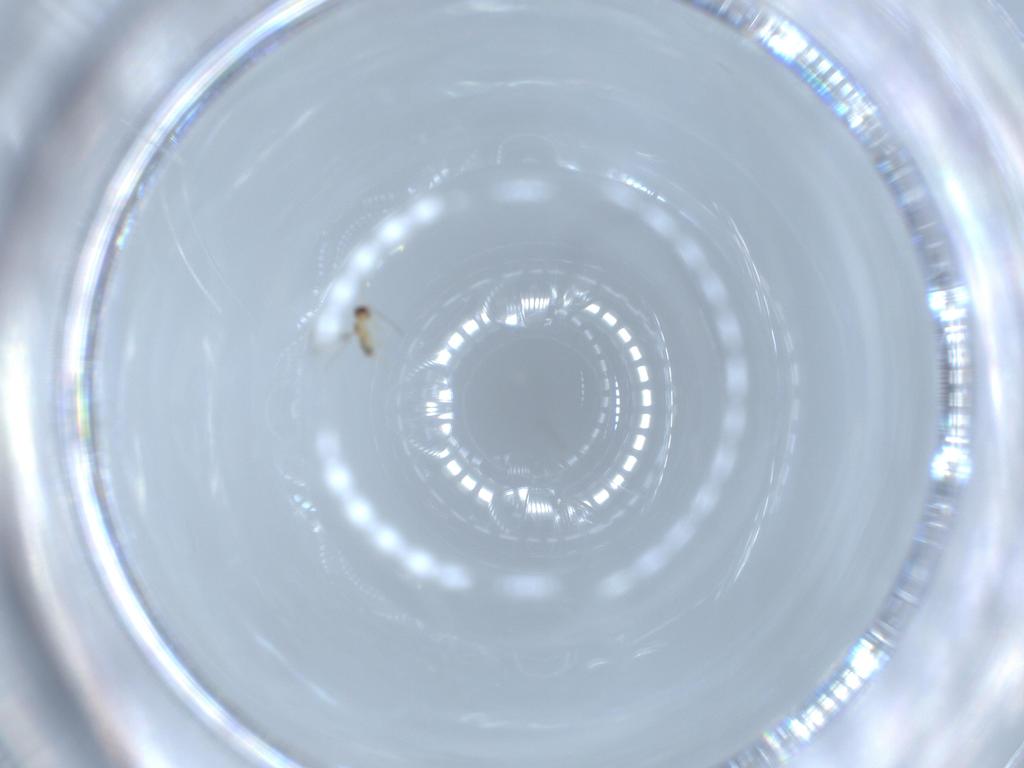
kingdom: Animalia
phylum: Arthropoda
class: Insecta
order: Hymenoptera
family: Mymaridae
